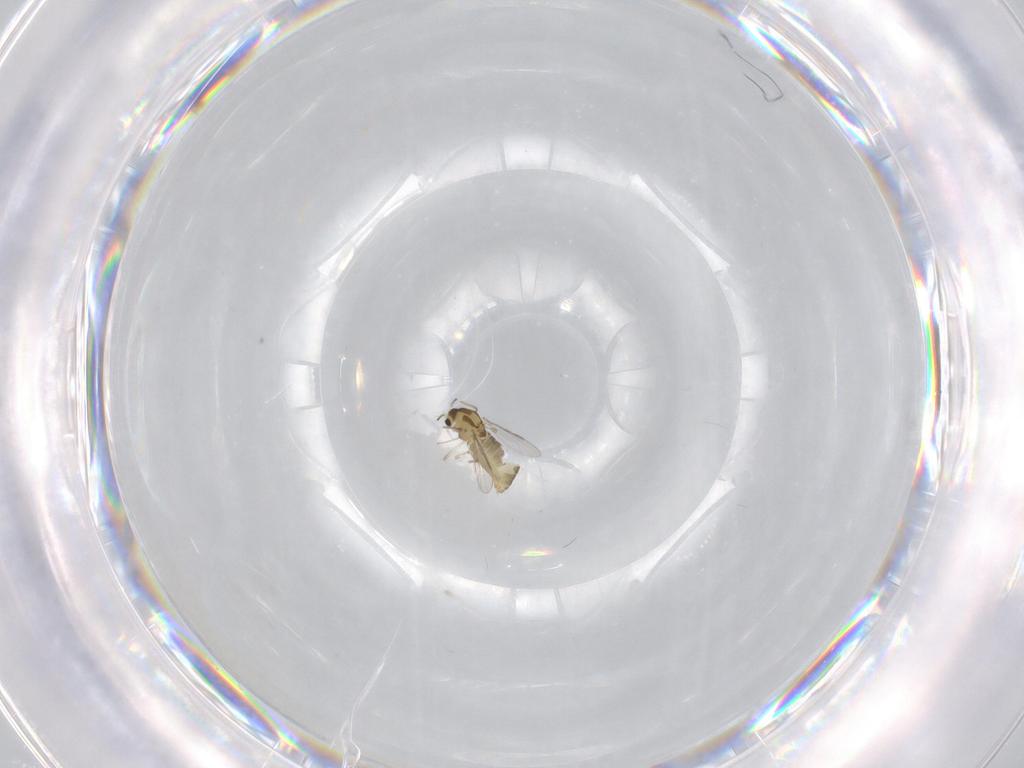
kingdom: Animalia
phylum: Arthropoda
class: Insecta
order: Diptera
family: Chironomidae
